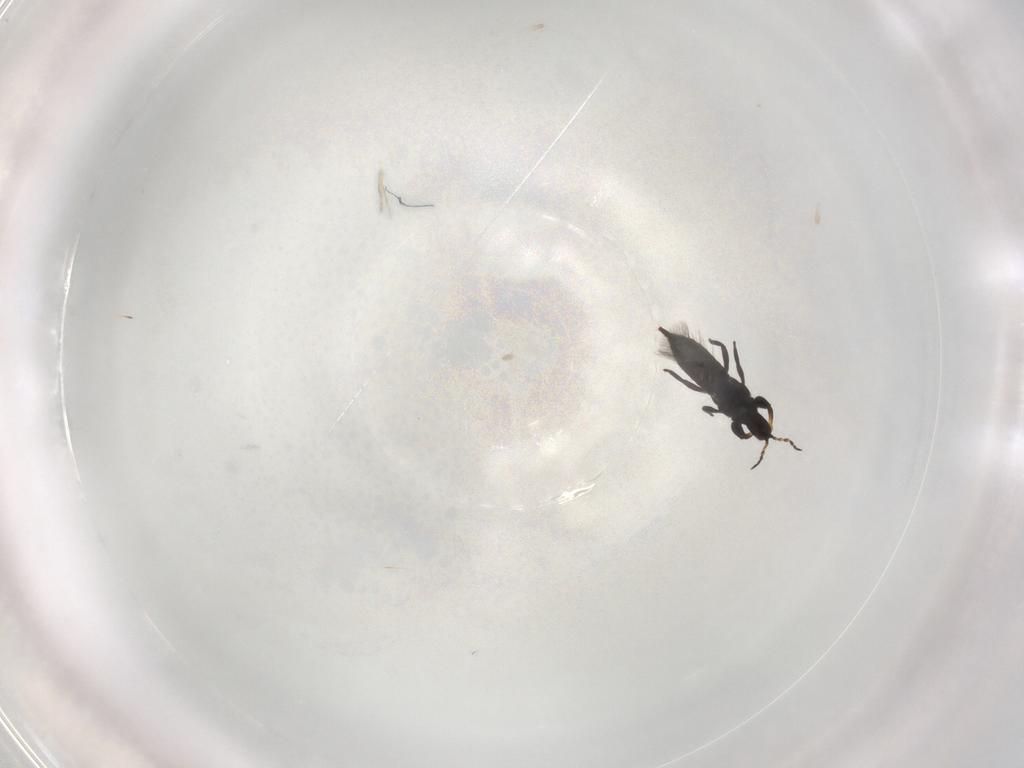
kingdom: Animalia
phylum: Arthropoda
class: Insecta
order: Thysanoptera
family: Phlaeothripidae
